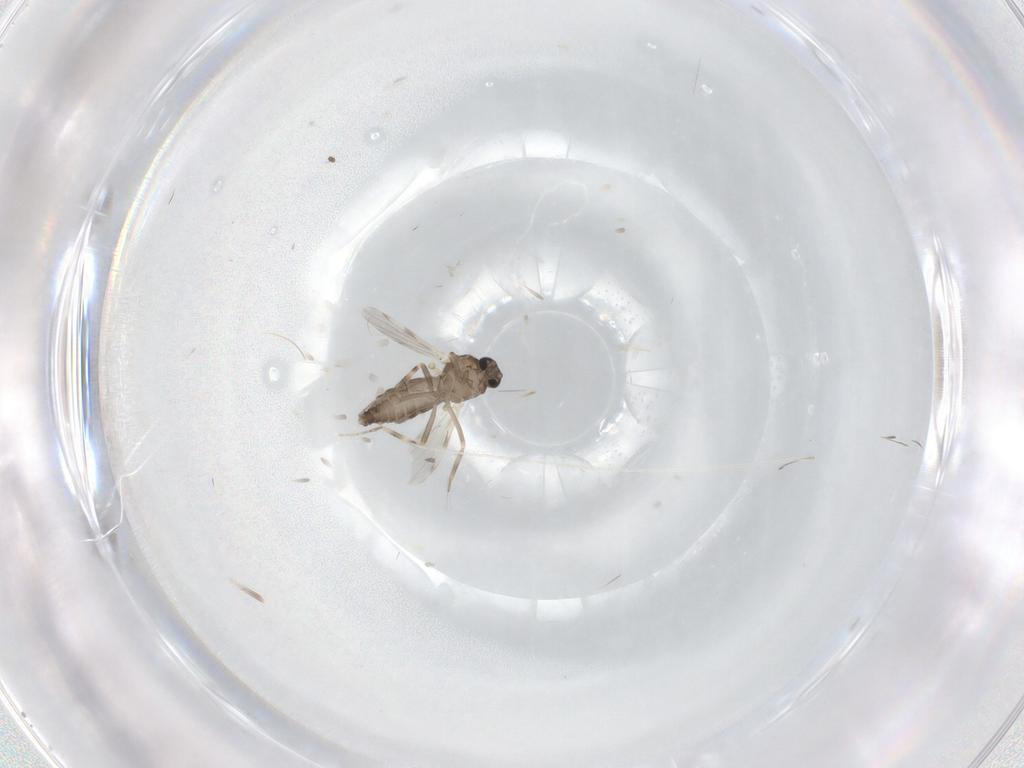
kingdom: Animalia
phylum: Arthropoda
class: Insecta
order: Diptera
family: Ceratopogonidae
